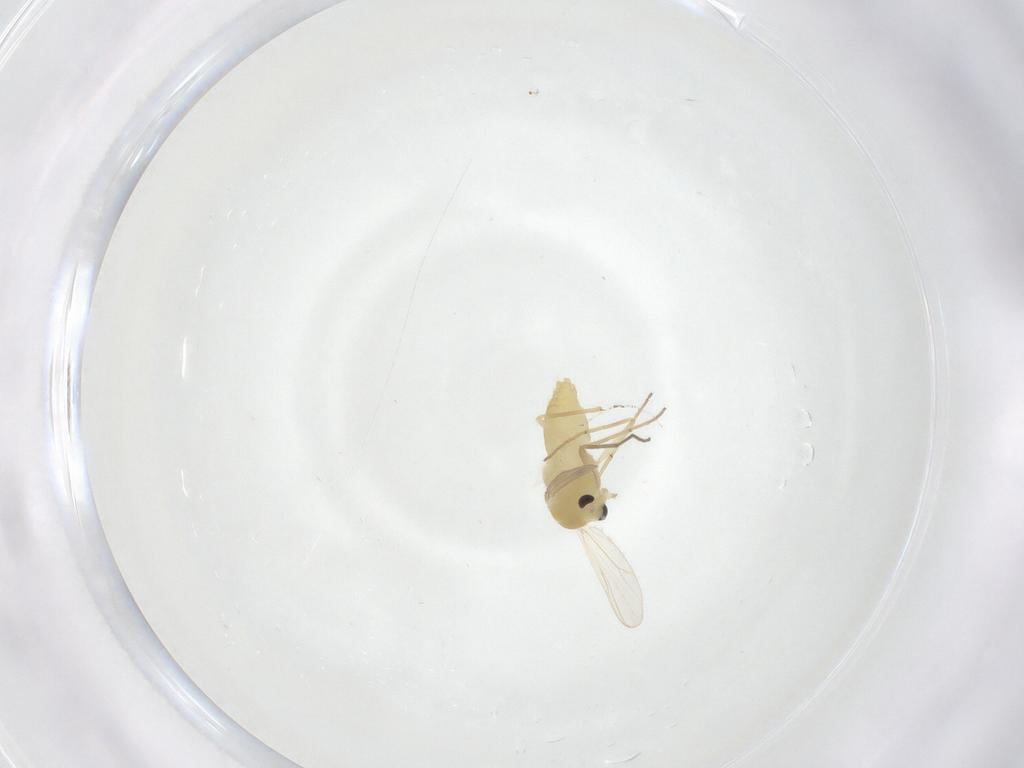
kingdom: Animalia
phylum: Arthropoda
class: Insecta
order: Diptera
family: Chironomidae
